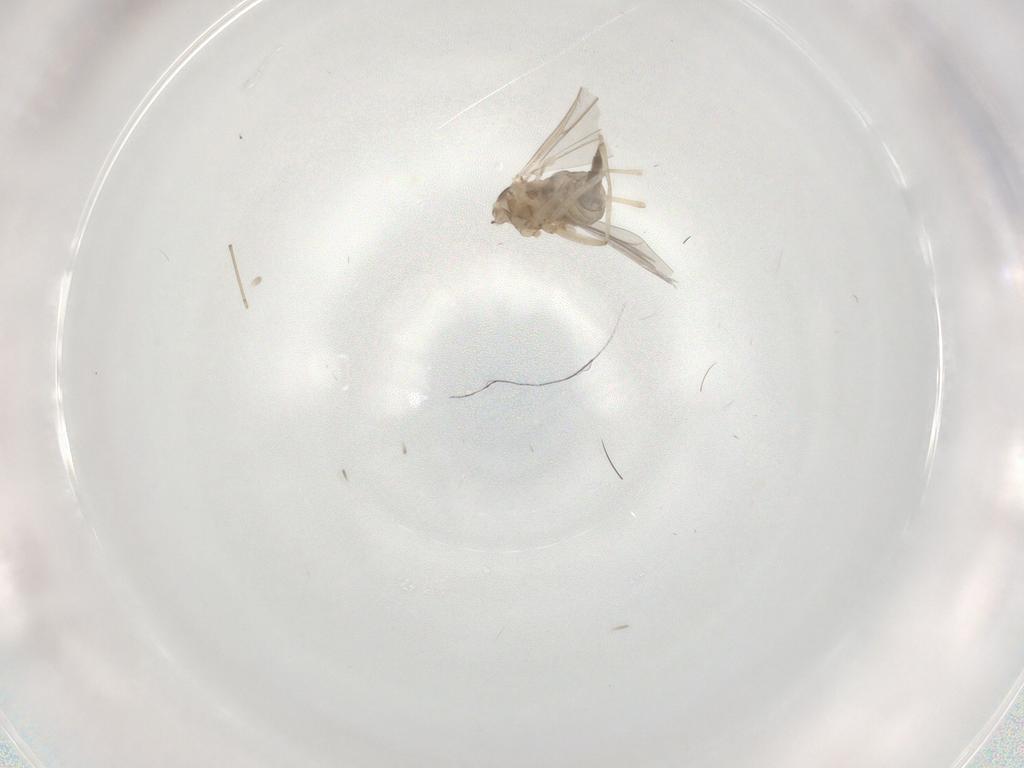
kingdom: Animalia
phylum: Arthropoda
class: Insecta
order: Diptera
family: Cecidomyiidae
